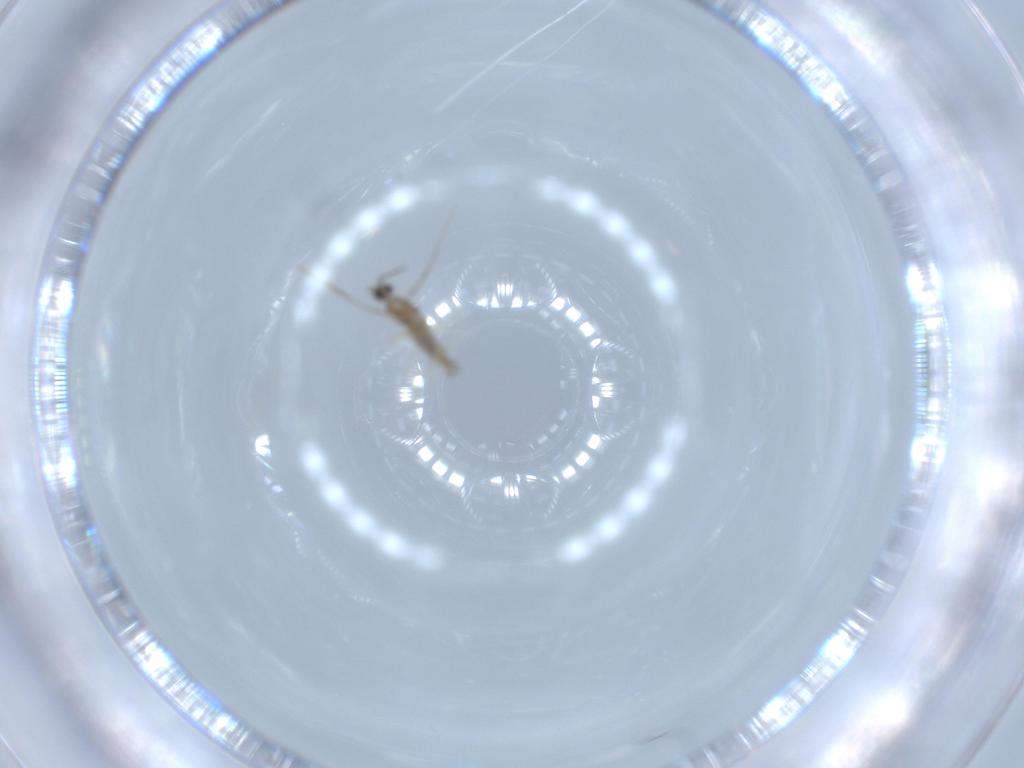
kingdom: Animalia
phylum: Arthropoda
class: Insecta
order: Diptera
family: Cecidomyiidae
